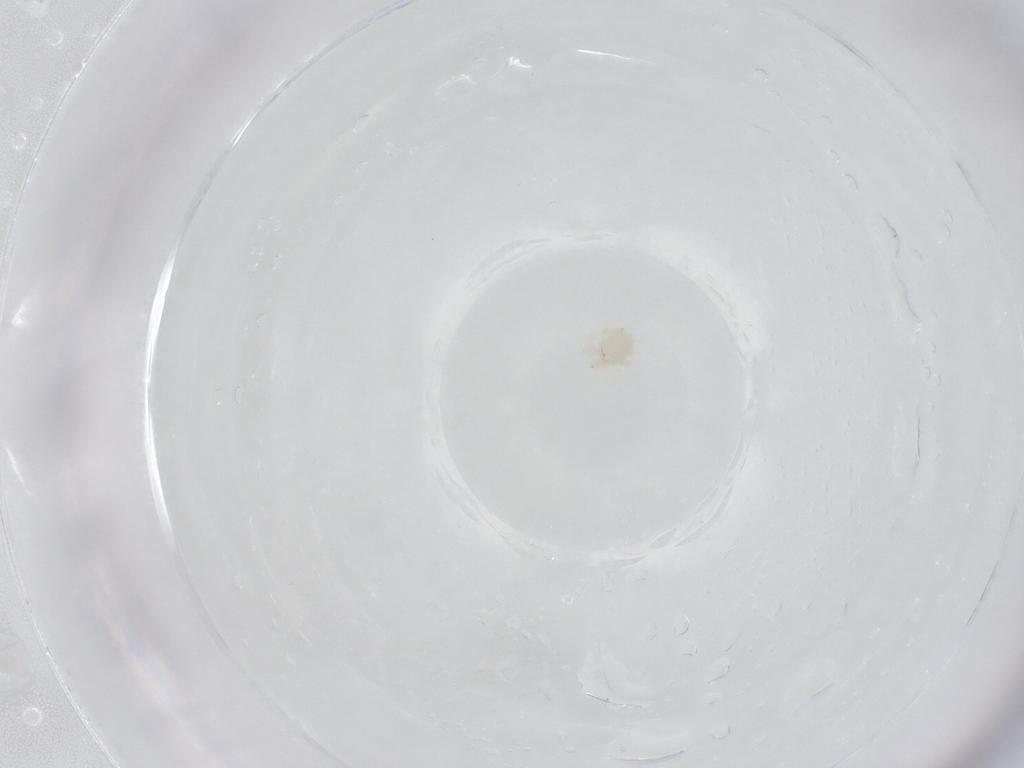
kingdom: Animalia
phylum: Arthropoda
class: Arachnida
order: Trombidiformes
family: Anystidae
